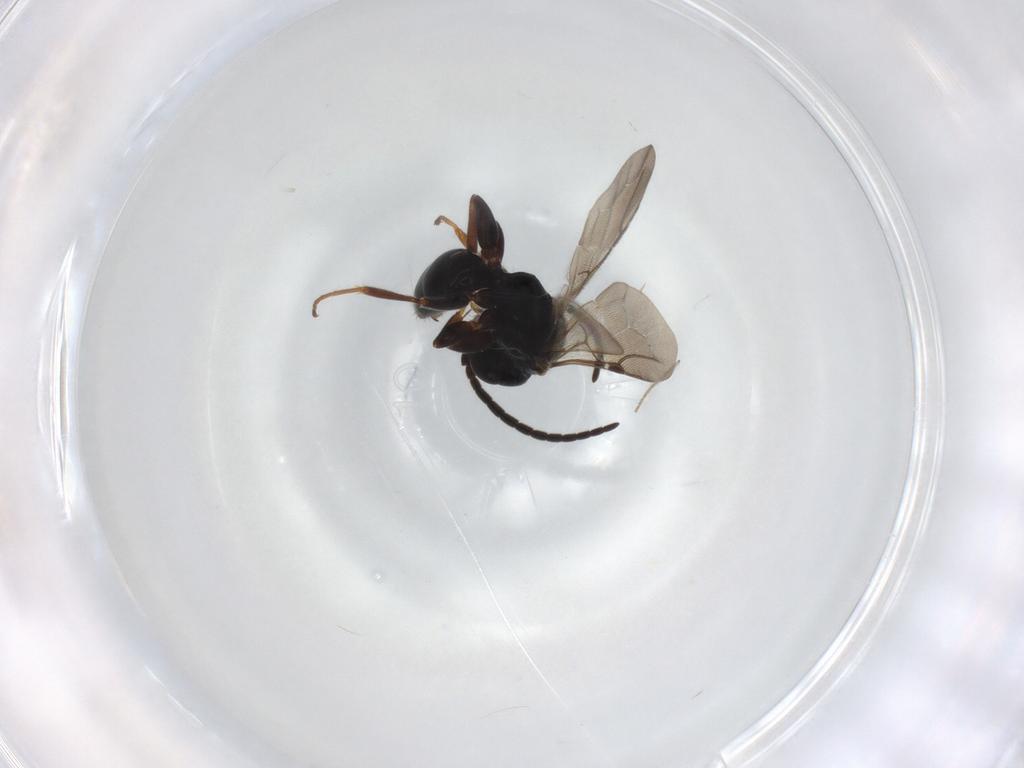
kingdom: Animalia
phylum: Arthropoda
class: Insecta
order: Hymenoptera
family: Bethylidae
